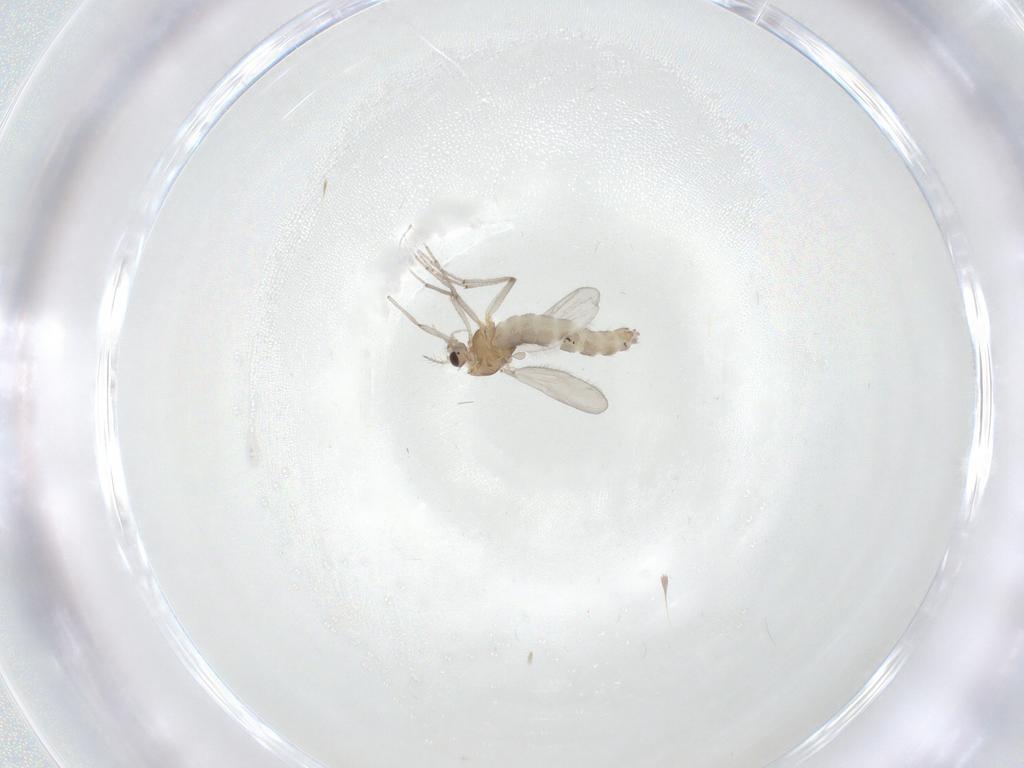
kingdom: Animalia
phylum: Arthropoda
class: Insecta
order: Diptera
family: Chironomidae
